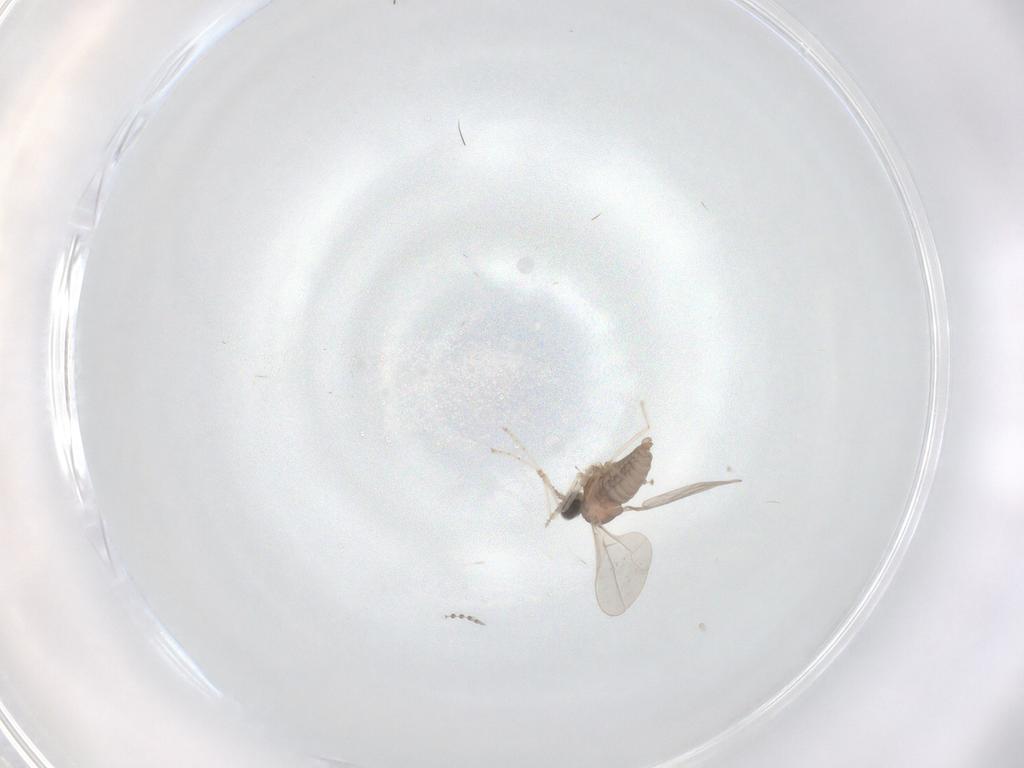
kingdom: Animalia
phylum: Arthropoda
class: Insecta
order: Diptera
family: Cecidomyiidae
